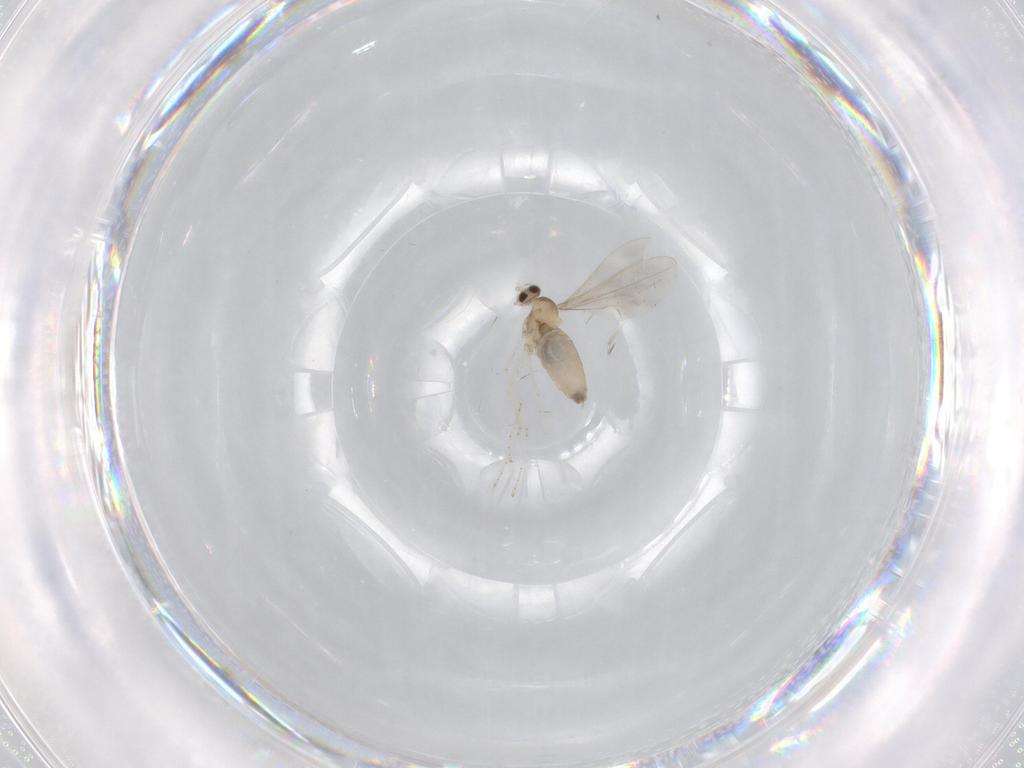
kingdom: Animalia
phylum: Arthropoda
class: Insecta
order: Diptera
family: Cecidomyiidae
